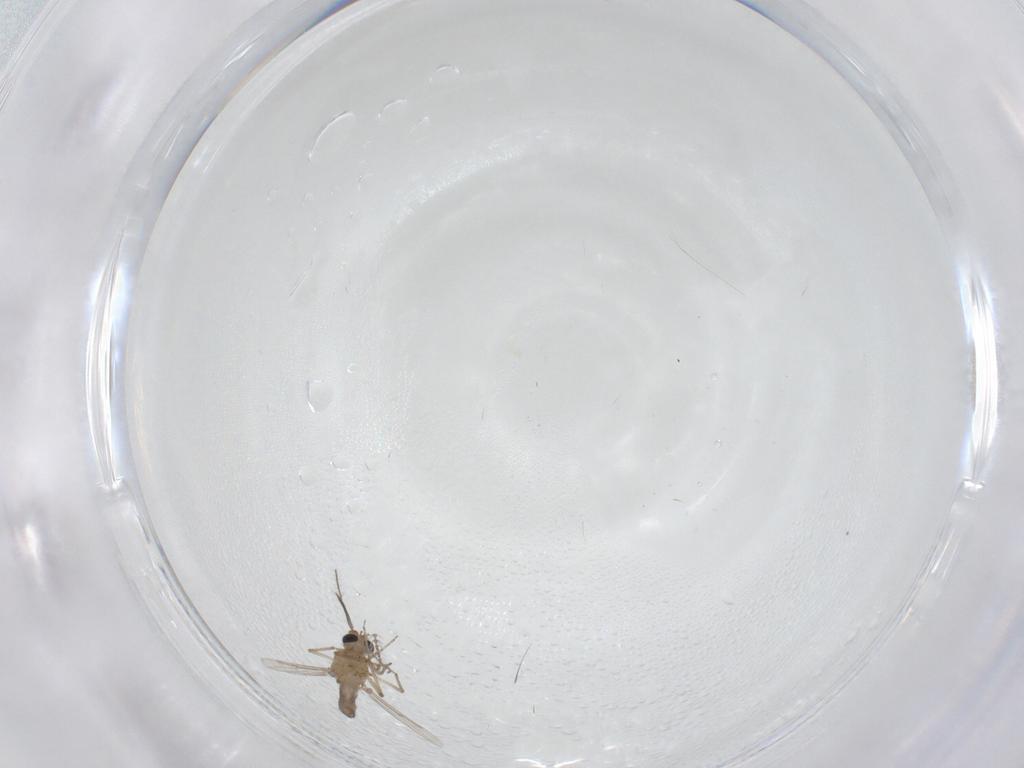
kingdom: Animalia
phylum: Arthropoda
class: Insecta
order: Diptera
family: Ceratopogonidae
